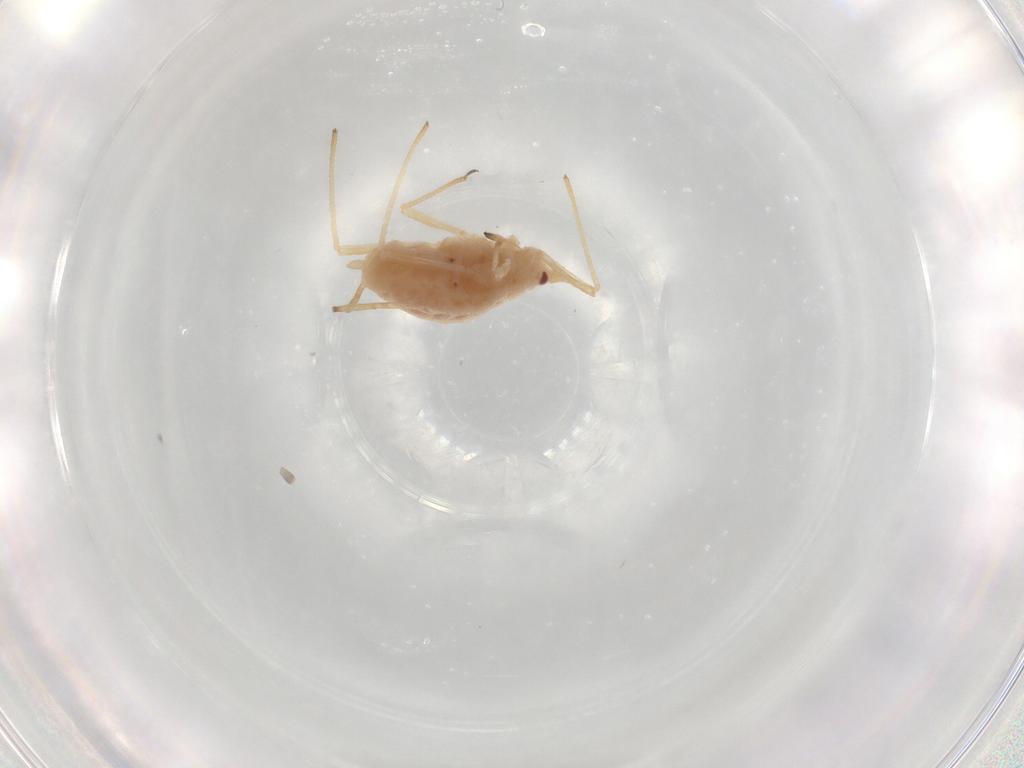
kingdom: Animalia
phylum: Arthropoda
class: Insecta
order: Hemiptera
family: Aphididae
